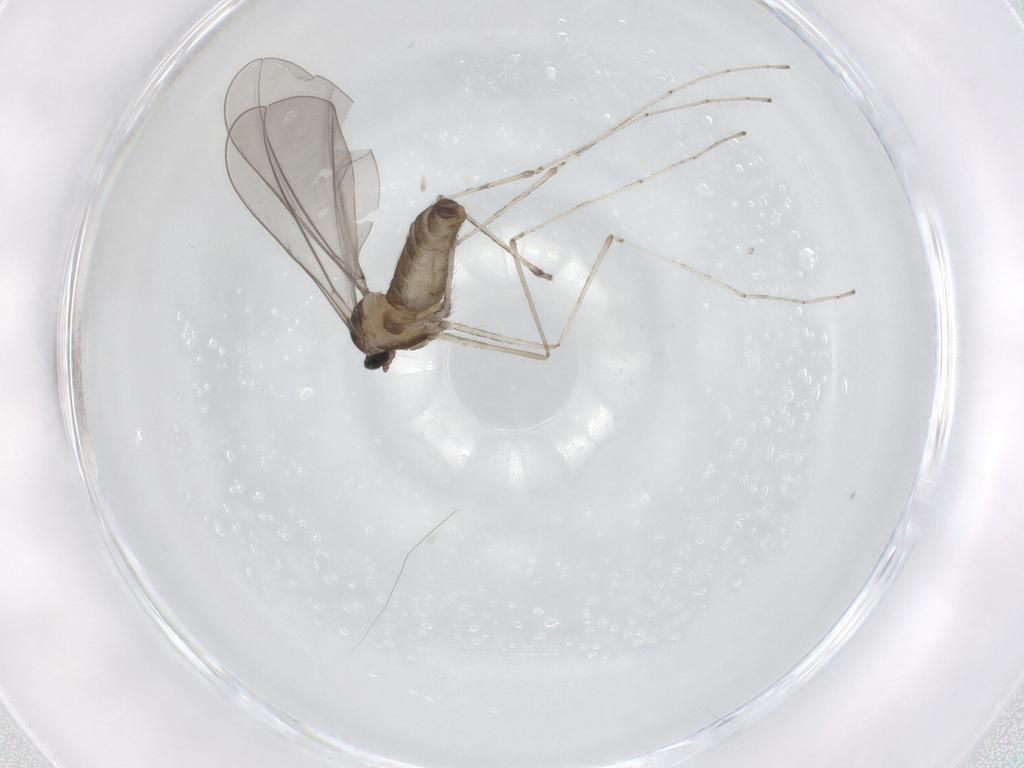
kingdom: Animalia
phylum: Arthropoda
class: Insecta
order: Diptera
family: Cecidomyiidae
